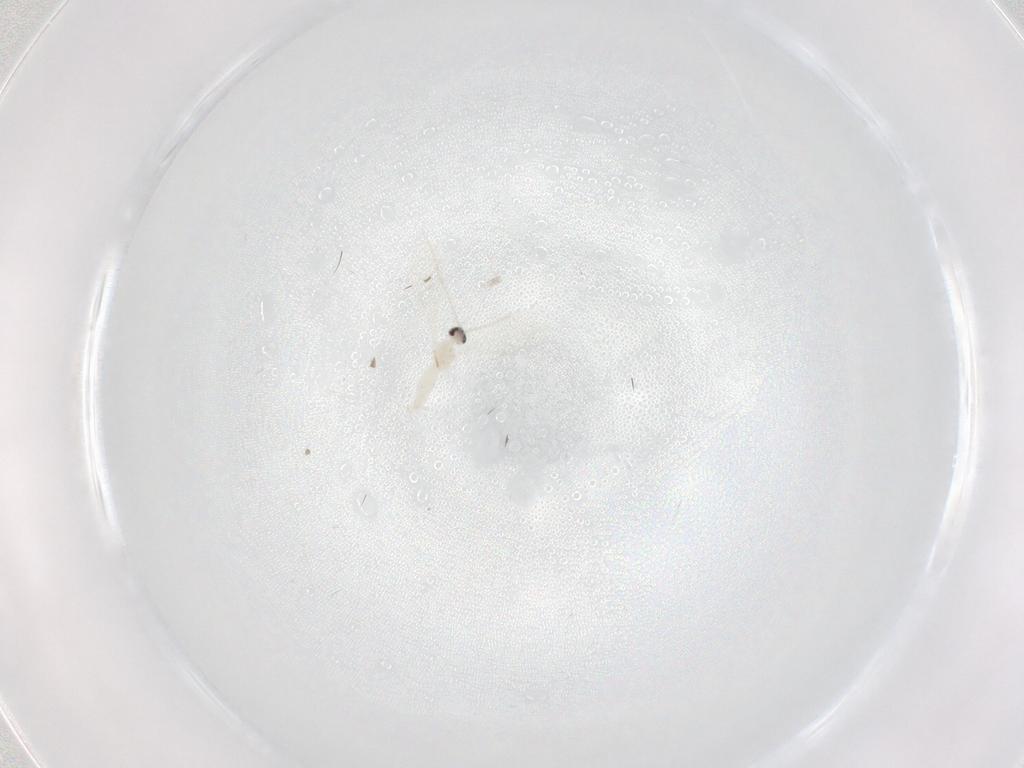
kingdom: Animalia
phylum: Arthropoda
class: Insecta
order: Diptera
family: Cecidomyiidae
